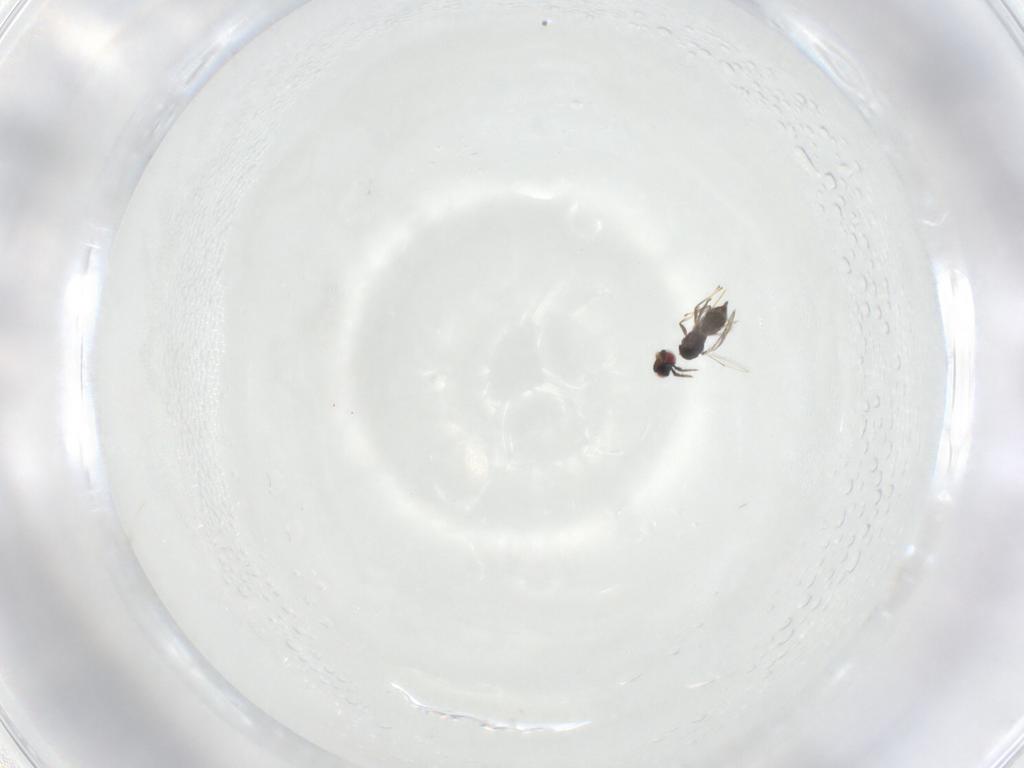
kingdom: Animalia
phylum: Arthropoda
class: Insecta
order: Hymenoptera
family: Eulophidae
